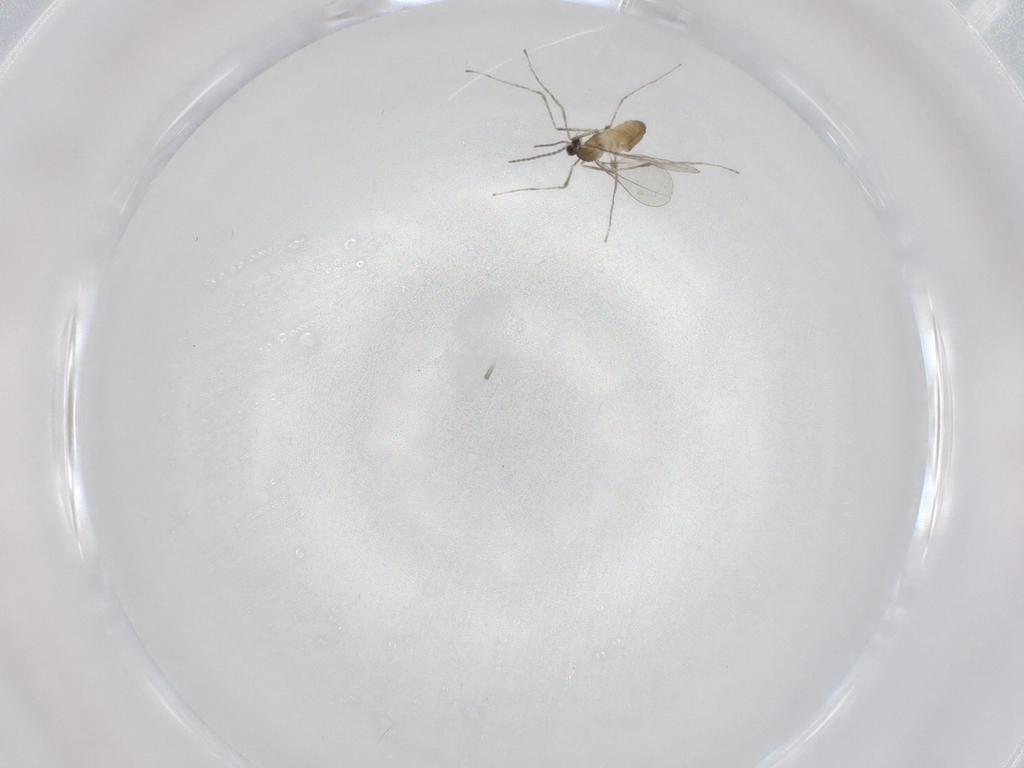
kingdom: Animalia
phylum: Arthropoda
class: Insecta
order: Diptera
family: Cecidomyiidae
